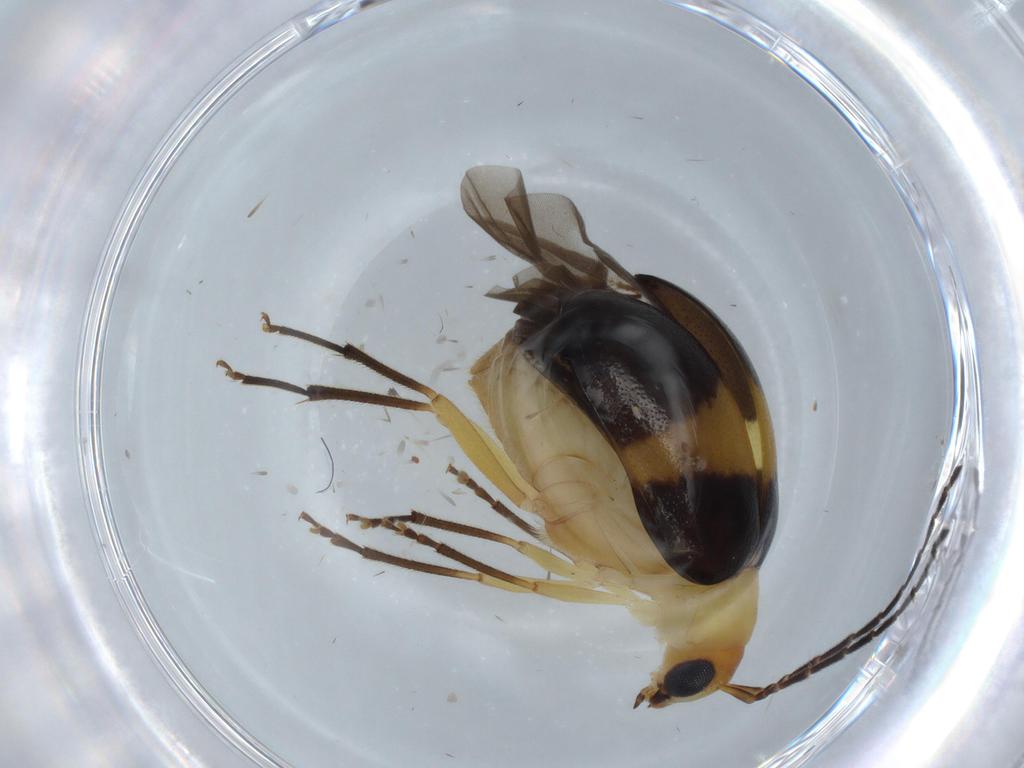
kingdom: Animalia
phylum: Arthropoda
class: Insecta
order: Coleoptera
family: Chrysomelidae
